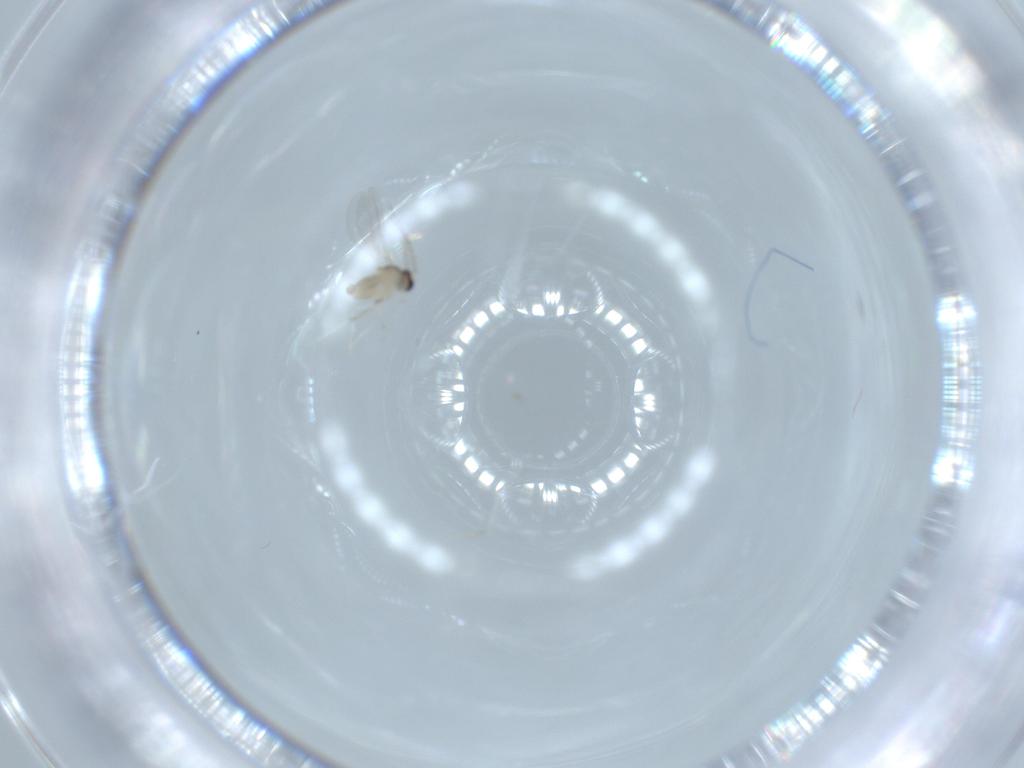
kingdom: Animalia
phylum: Arthropoda
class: Insecta
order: Diptera
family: Cecidomyiidae
